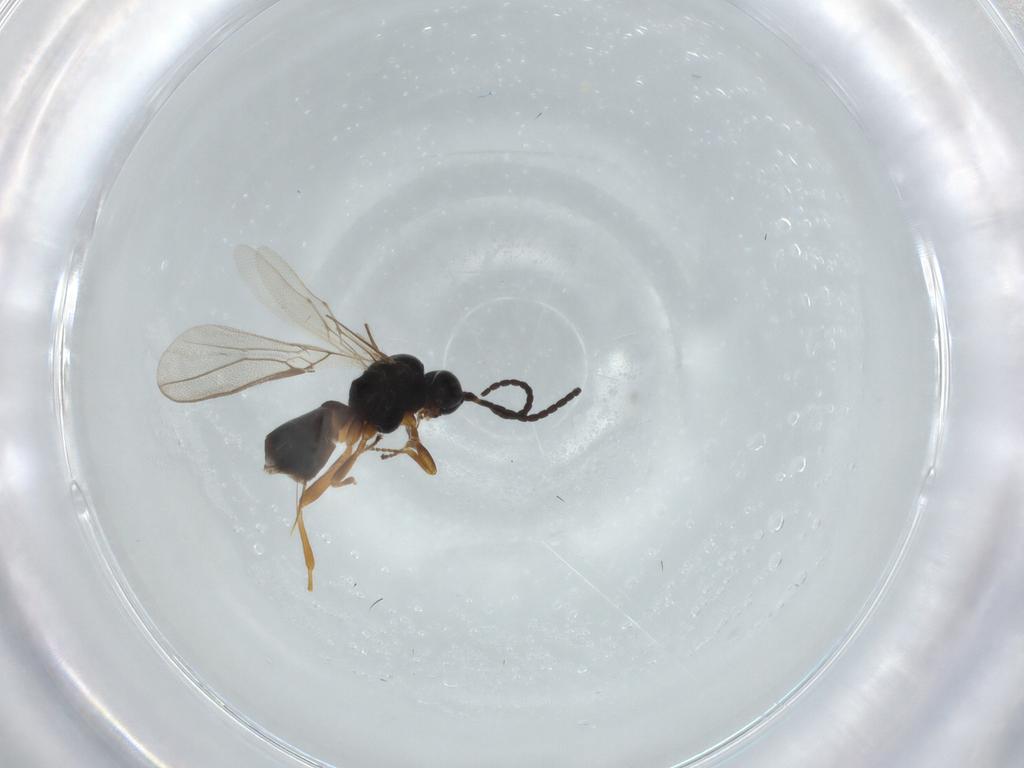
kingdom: Animalia
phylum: Arthropoda
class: Insecta
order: Hymenoptera
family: Braconidae
